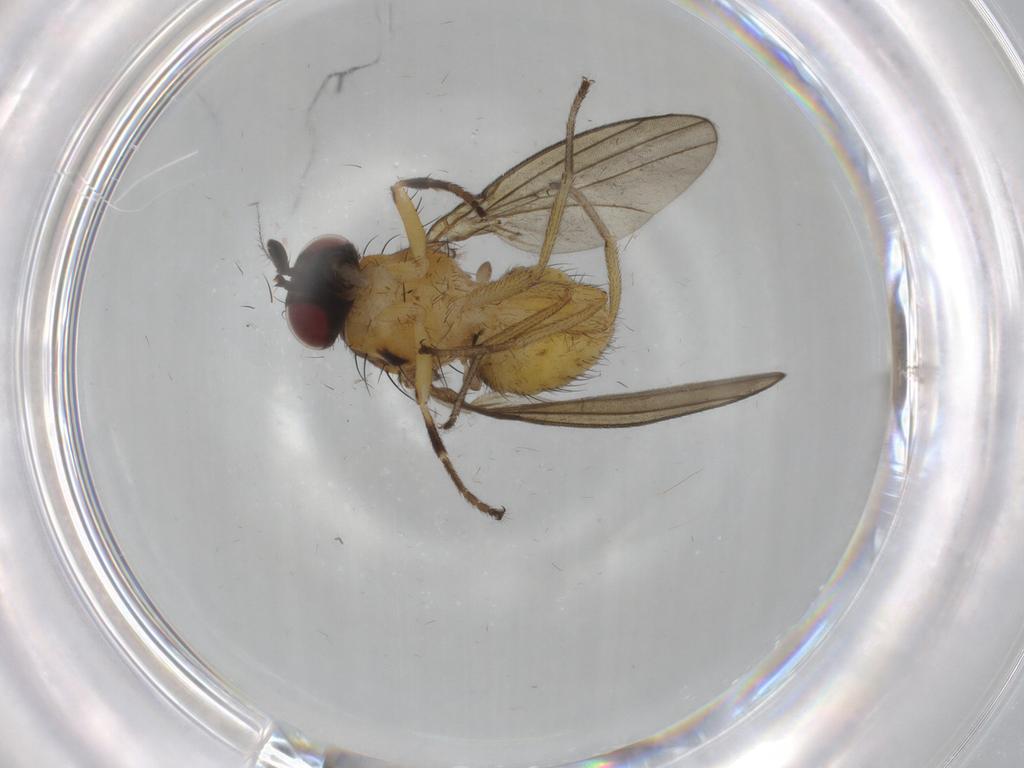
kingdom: Animalia
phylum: Arthropoda
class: Insecta
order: Diptera
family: Lauxaniidae
